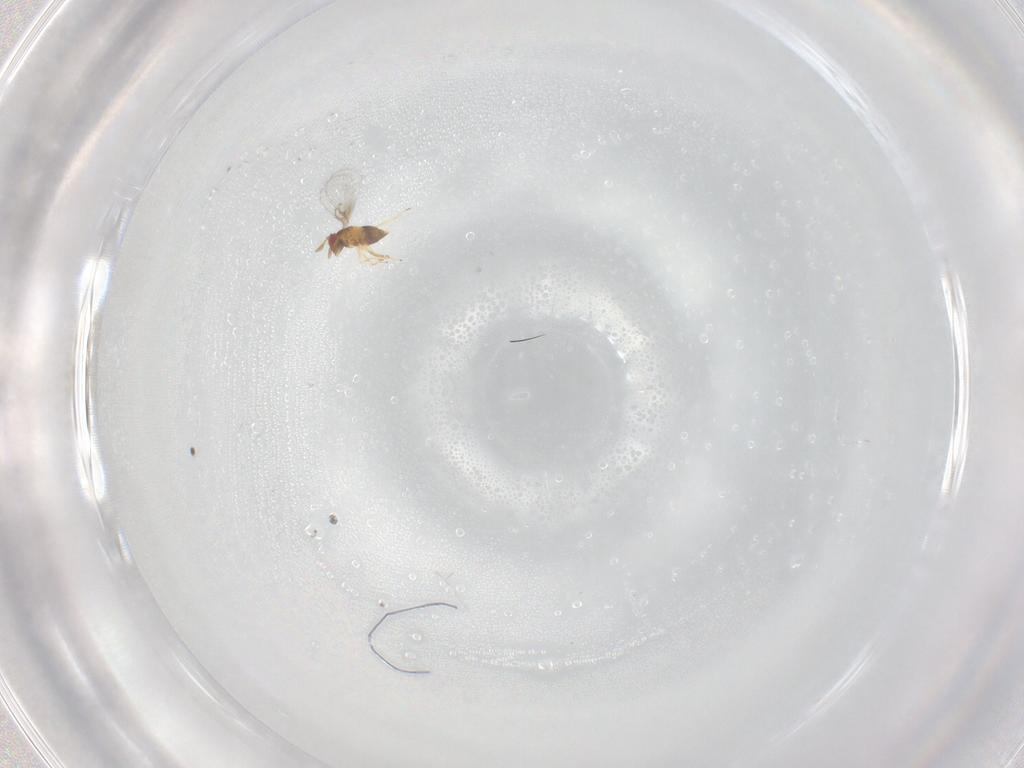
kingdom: Animalia
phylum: Arthropoda
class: Insecta
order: Hymenoptera
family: Trichogrammatidae
